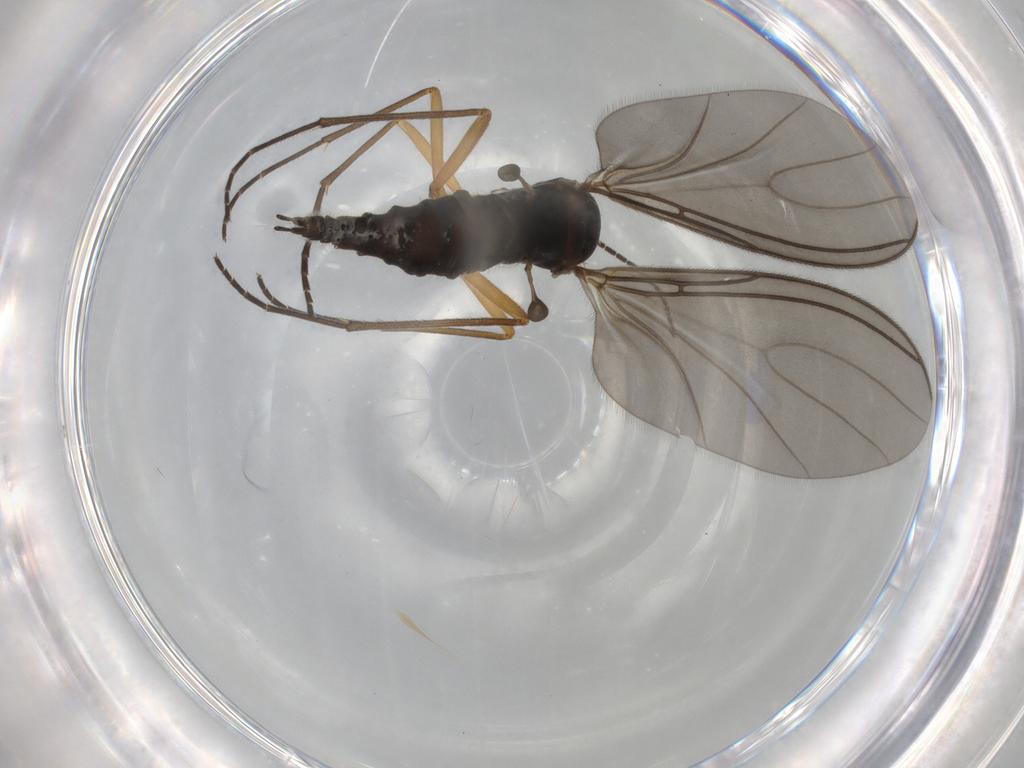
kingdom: Animalia
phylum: Arthropoda
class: Insecta
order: Diptera
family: Sciaridae
